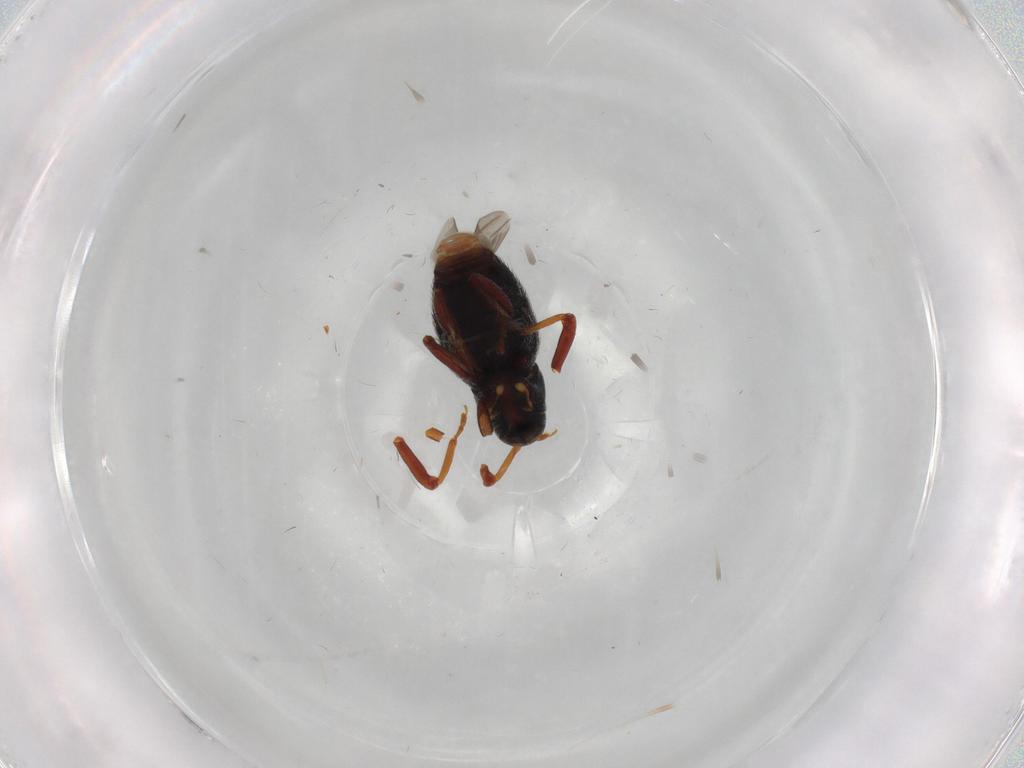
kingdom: Animalia
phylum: Arthropoda
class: Insecta
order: Coleoptera
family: Curculionidae
